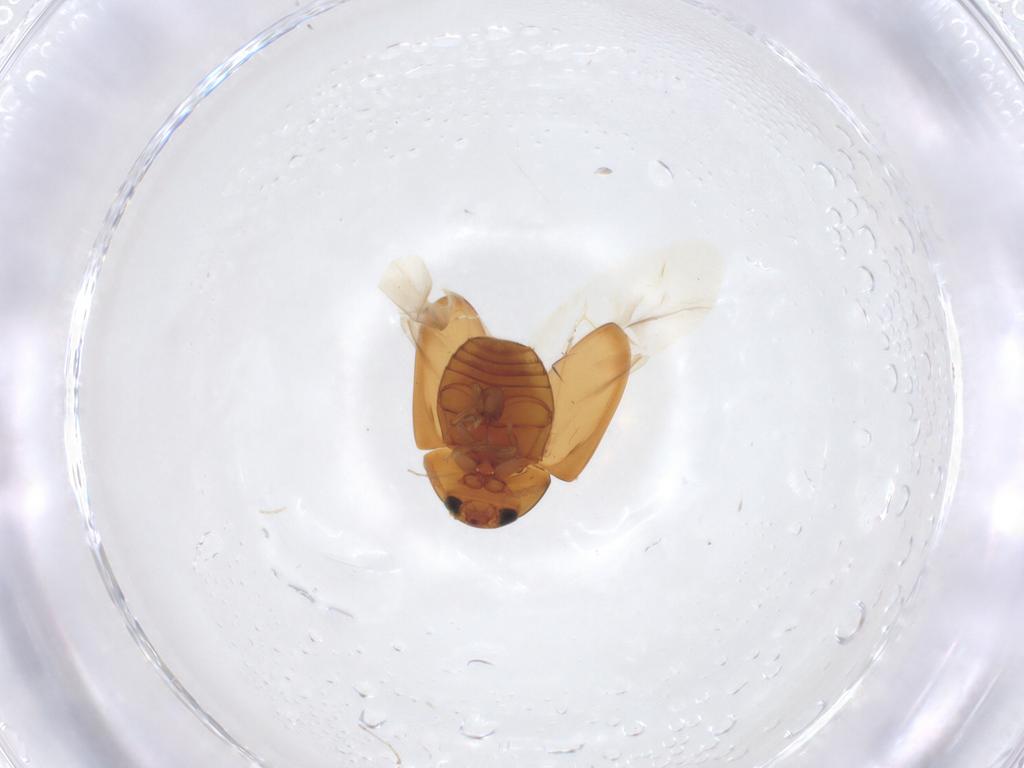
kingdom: Animalia
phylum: Arthropoda
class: Insecta
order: Coleoptera
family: Phalacridae
